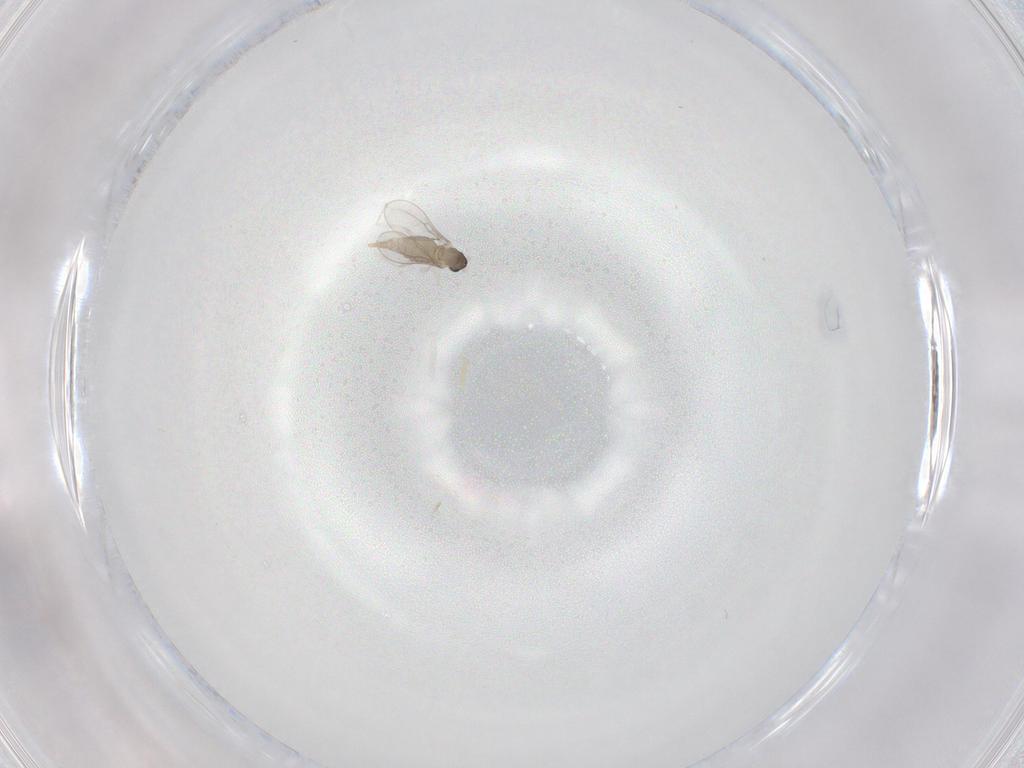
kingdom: Animalia
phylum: Arthropoda
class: Insecta
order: Diptera
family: Cecidomyiidae
